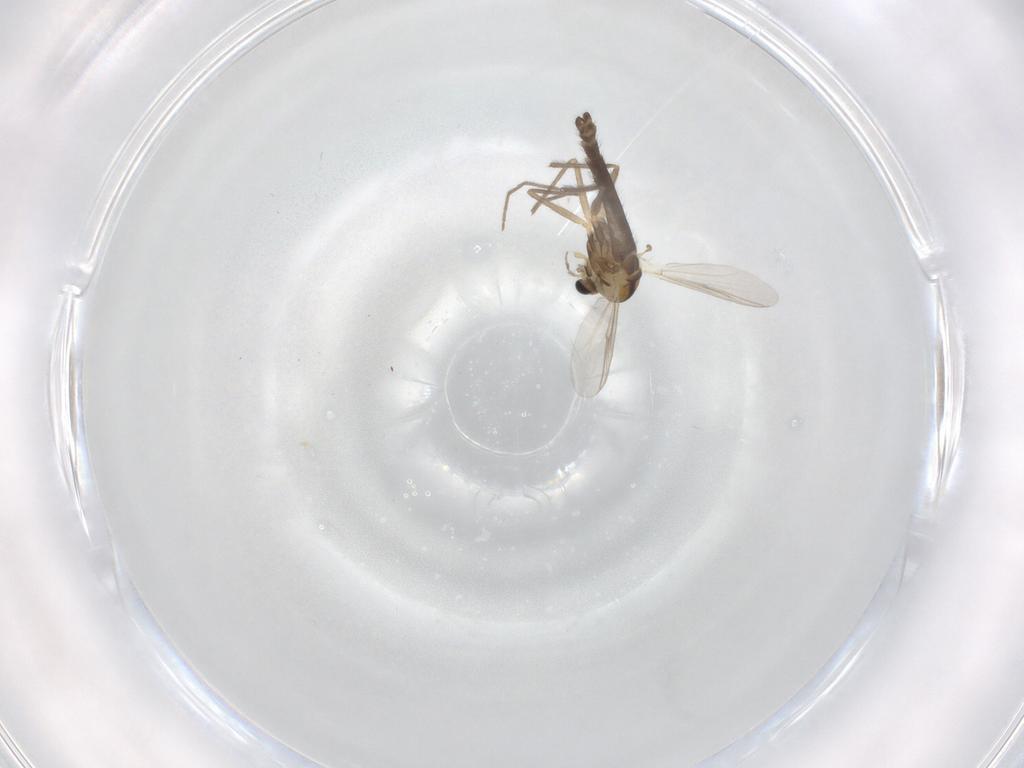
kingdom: Animalia
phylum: Arthropoda
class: Insecta
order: Diptera
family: Chironomidae
